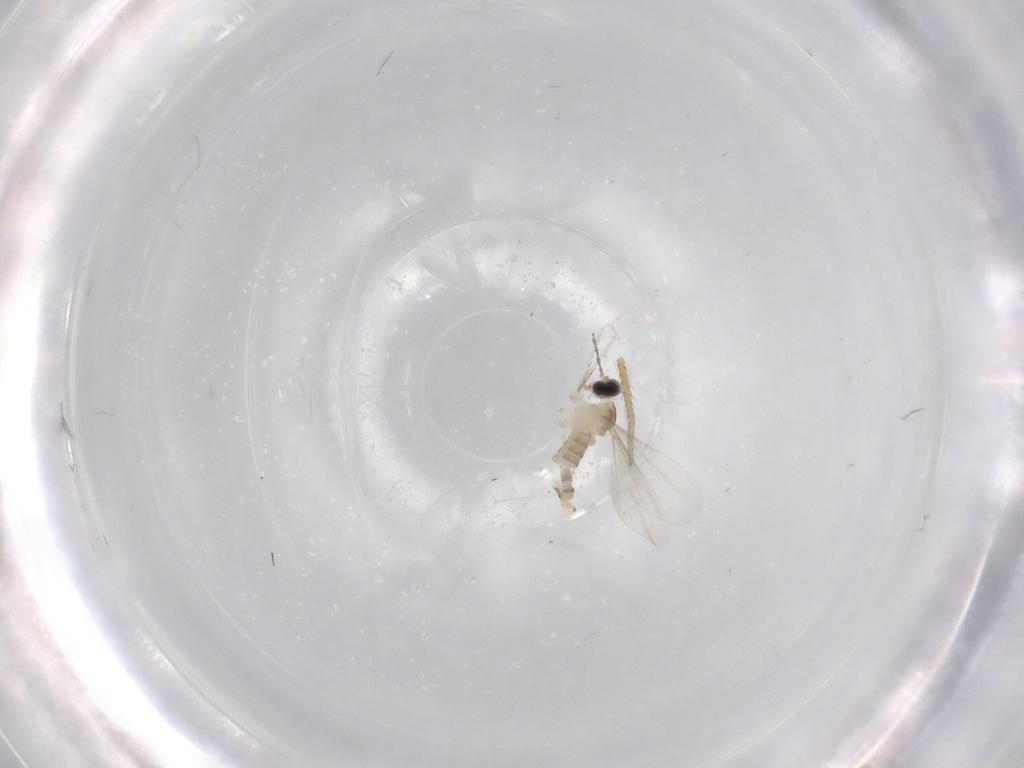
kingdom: Animalia
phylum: Arthropoda
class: Insecta
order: Diptera
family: Cecidomyiidae
